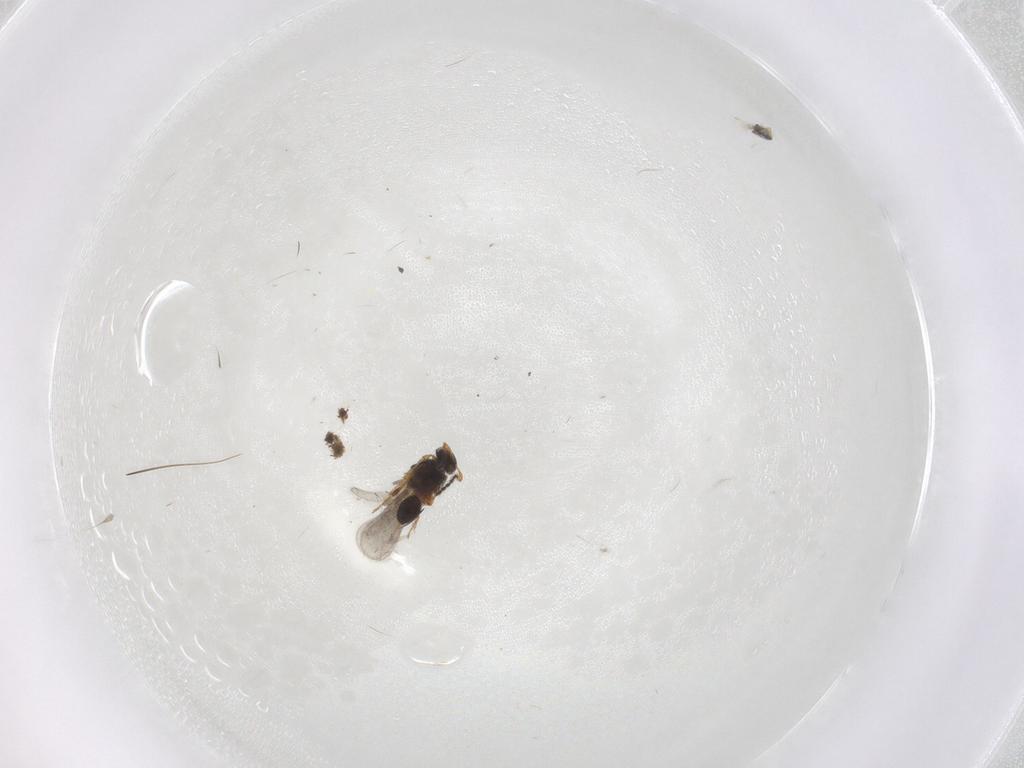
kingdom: Animalia
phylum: Arthropoda
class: Insecta
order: Hymenoptera
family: Platygastridae
